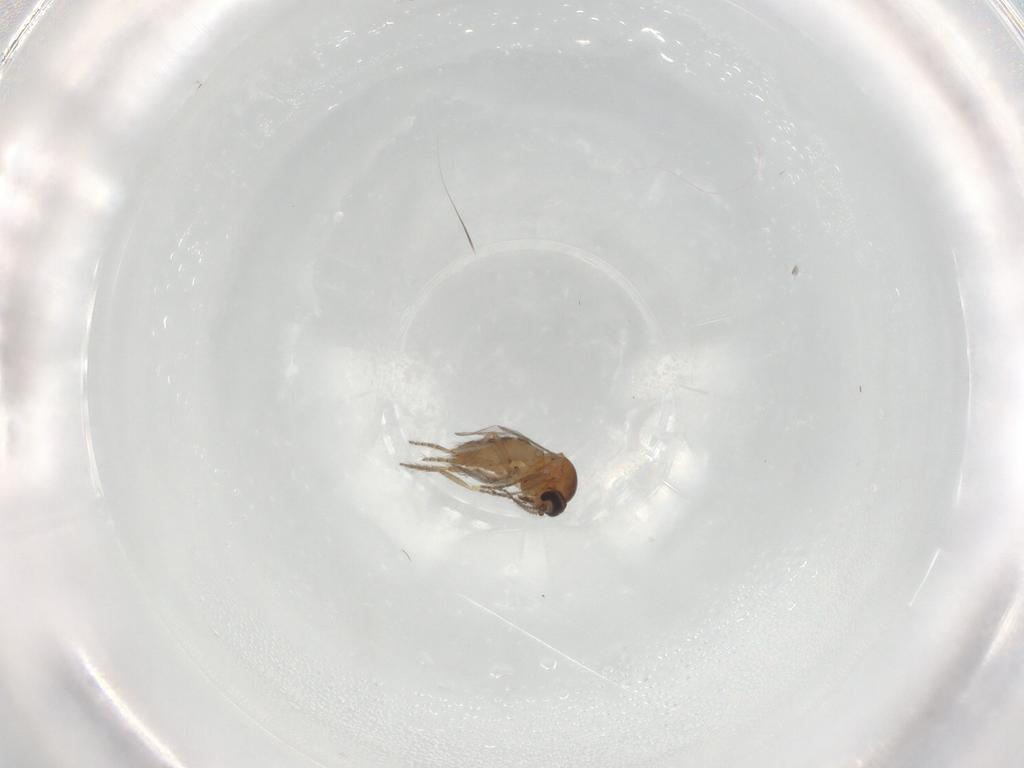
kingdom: Animalia
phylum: Arthropoda
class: Insecta
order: Diptera
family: Ceratopogonidae
